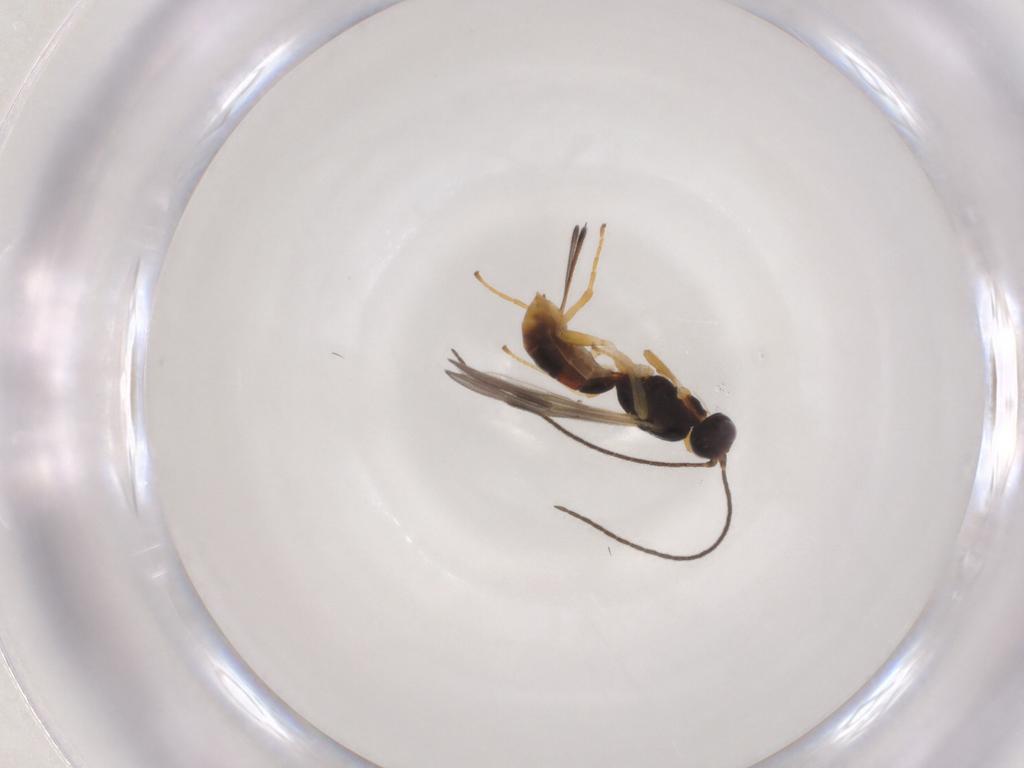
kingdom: Animalia
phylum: Arthropoda
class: Insecta
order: Hymenoptera
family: Braconidae
